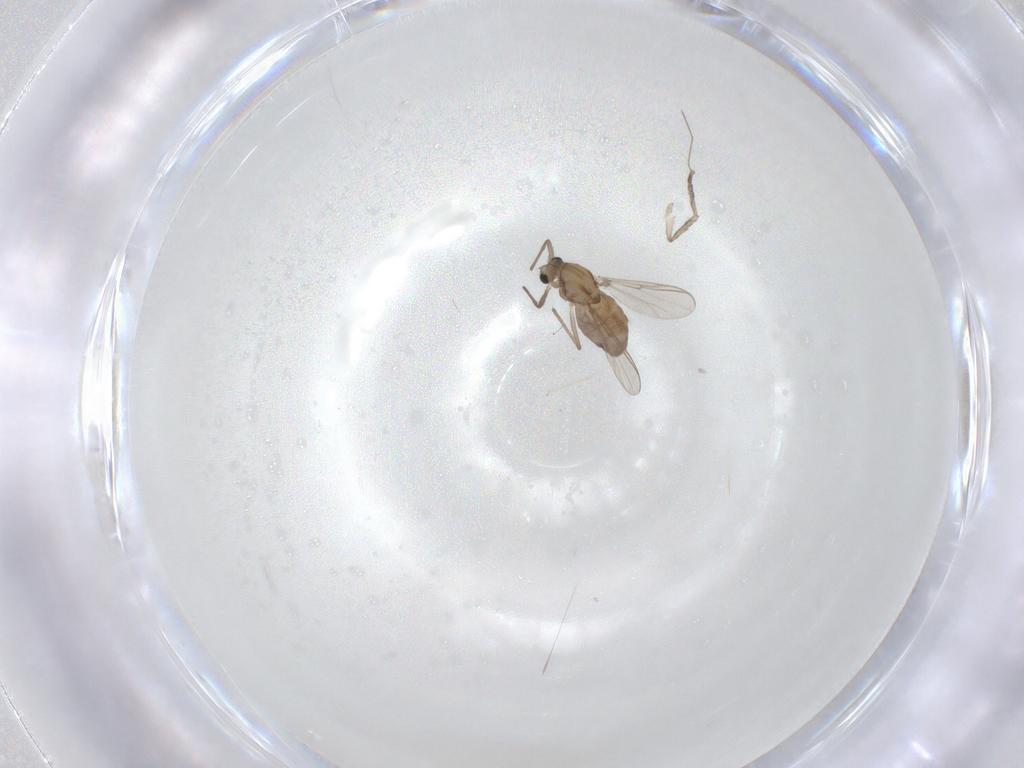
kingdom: Animalia
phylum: Arthropoda
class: Insecta
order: Diptera
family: Chironomidae
